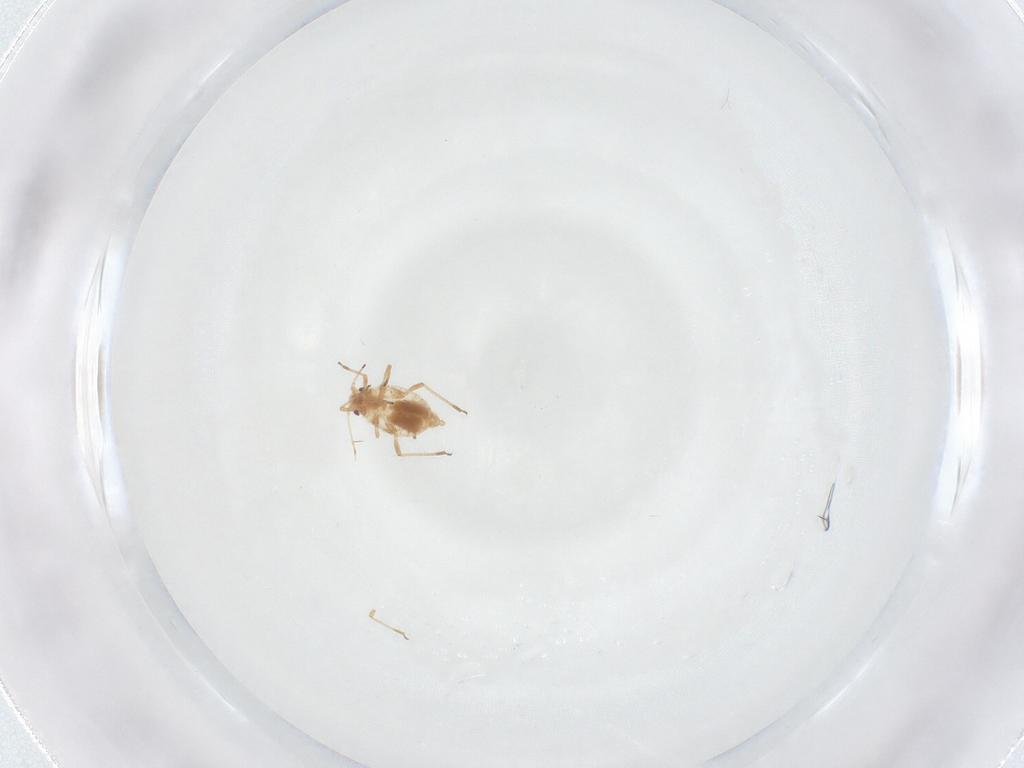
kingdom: Animalia
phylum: Arthropoda
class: Insecta
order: Hemiptera
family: Aphididae
